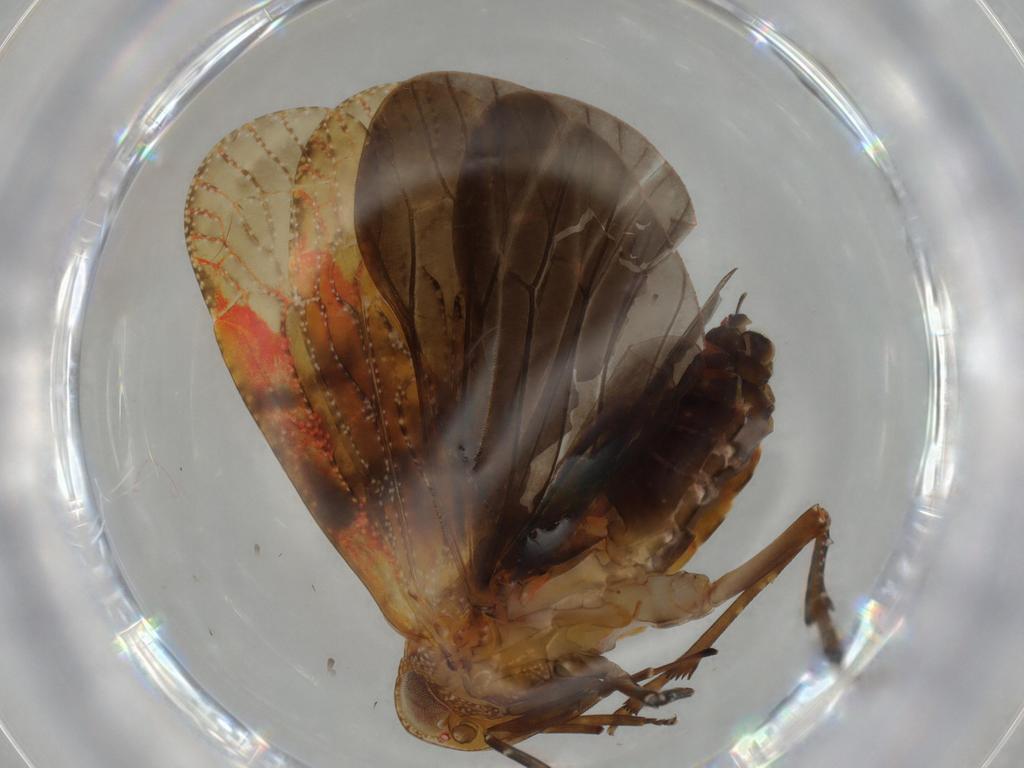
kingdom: Animalia
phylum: Arthropoda
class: Insecta
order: Hemiptera
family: Achilidae
